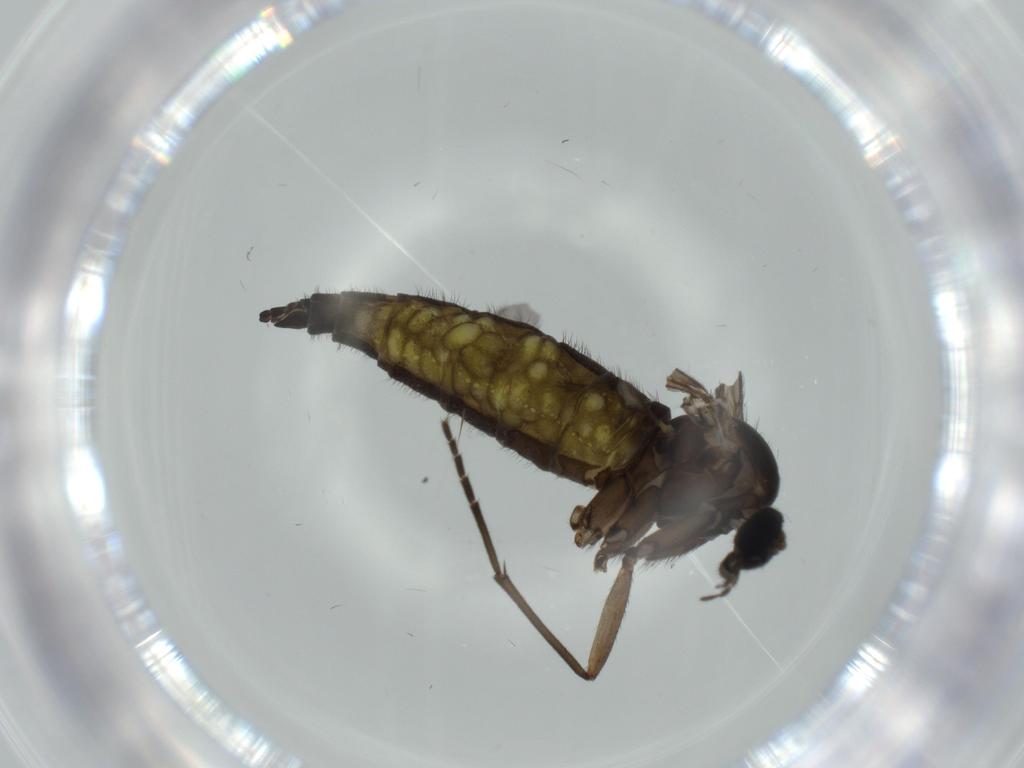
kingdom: Animalia
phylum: Arthropoda
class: Insecta
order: Diptera
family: Sciaridae
